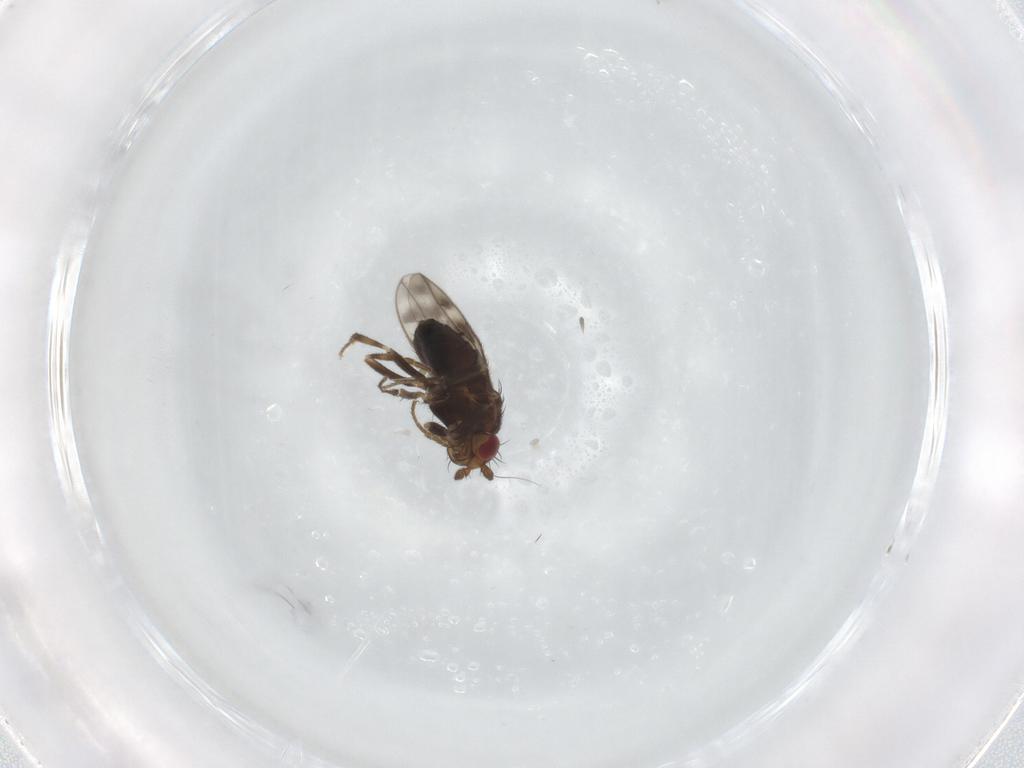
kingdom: Animalia
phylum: Arthropoda
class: Insecta
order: Diptera
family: Sphaeroceridae
